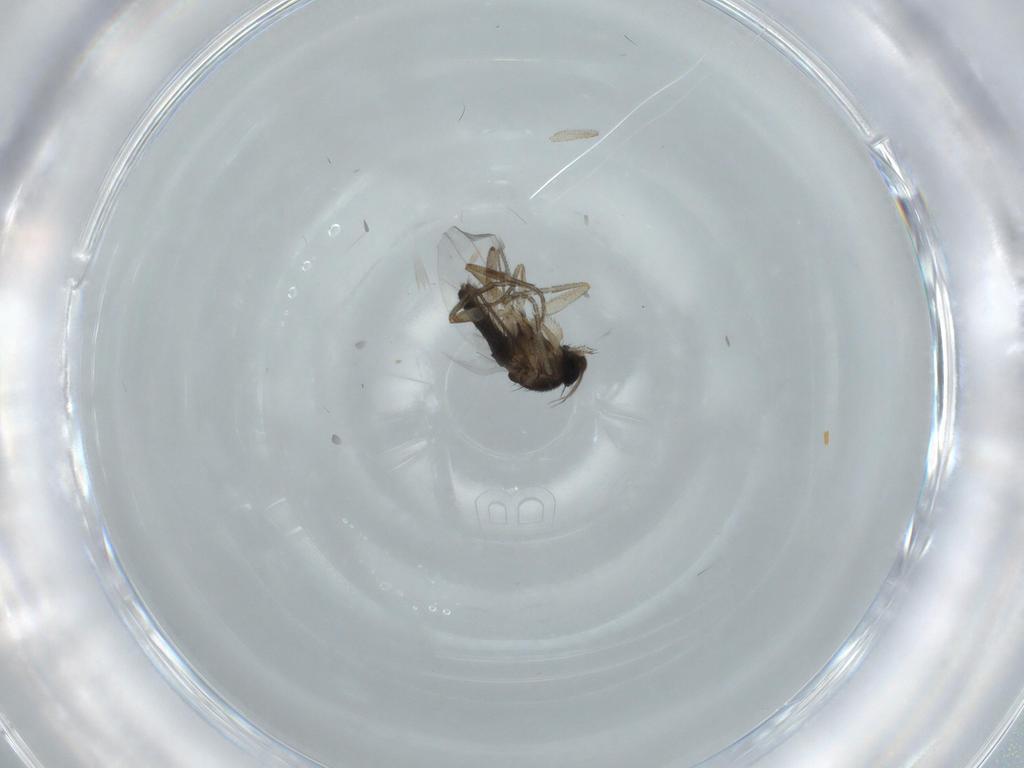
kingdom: Animalia
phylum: Arthropoda
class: Insecta
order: Diptera
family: Phoridae
